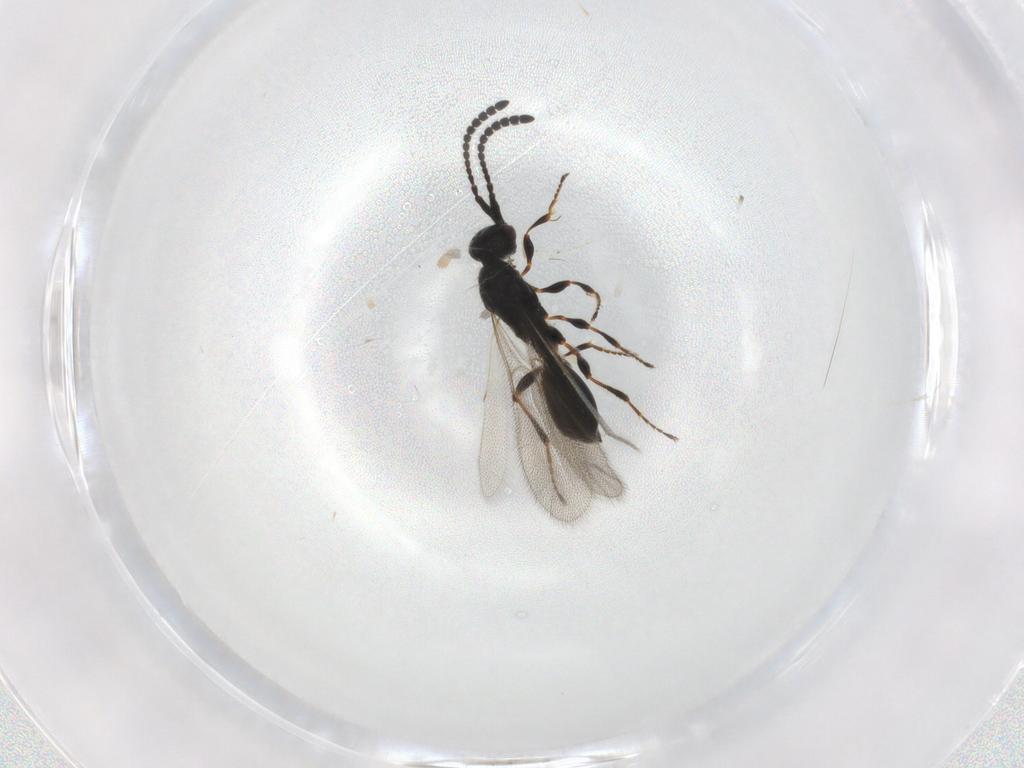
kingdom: Animalia
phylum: Arthropoda
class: Insecta
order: Hymenoptera
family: Diapriidae
